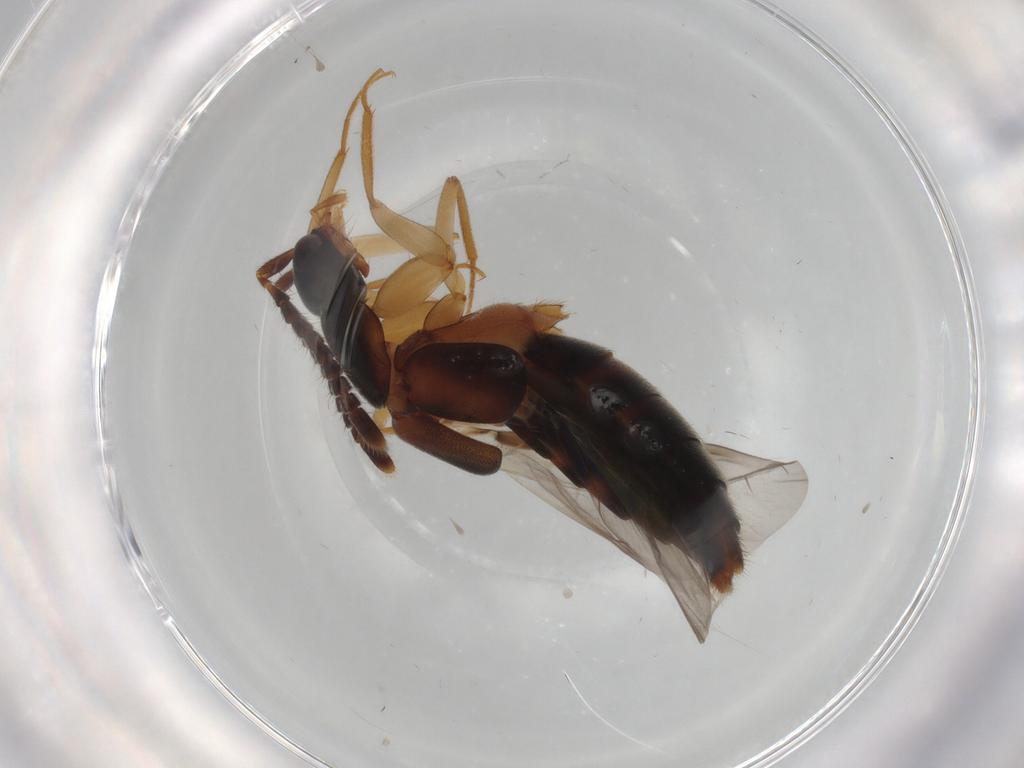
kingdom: Animalia
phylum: Arthropoda
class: Insecta
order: Coleoptera
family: Staphylinidae
